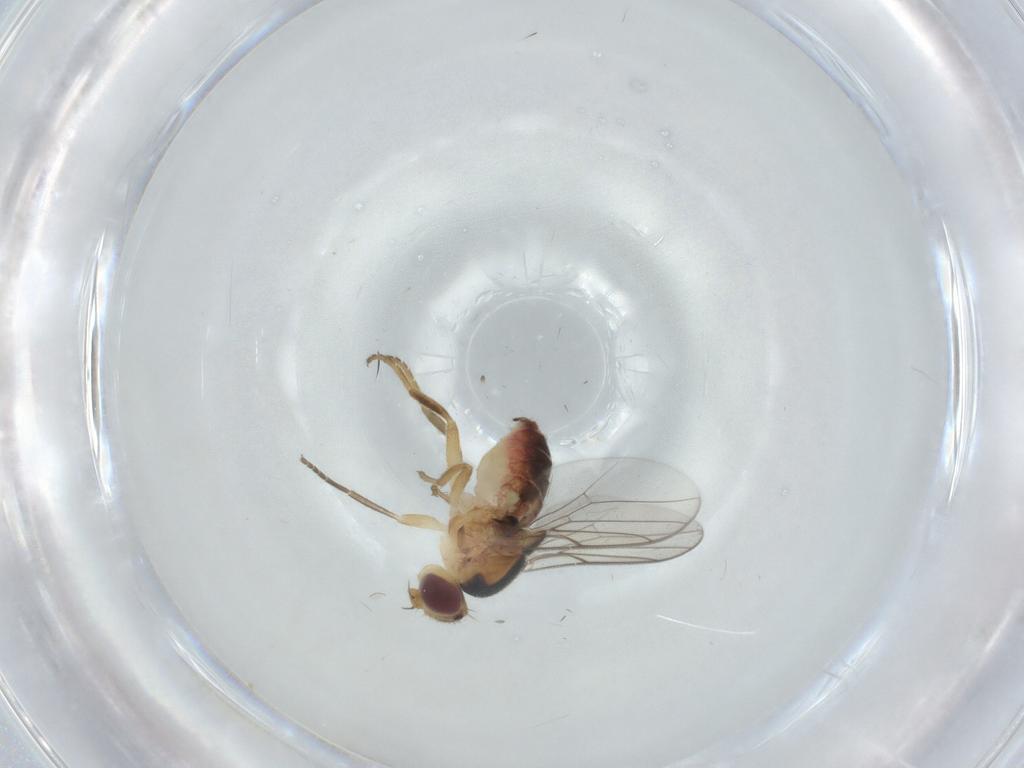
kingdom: Animalia
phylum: Arthropoda
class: Insecta
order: Diptera
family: Chloropidae
